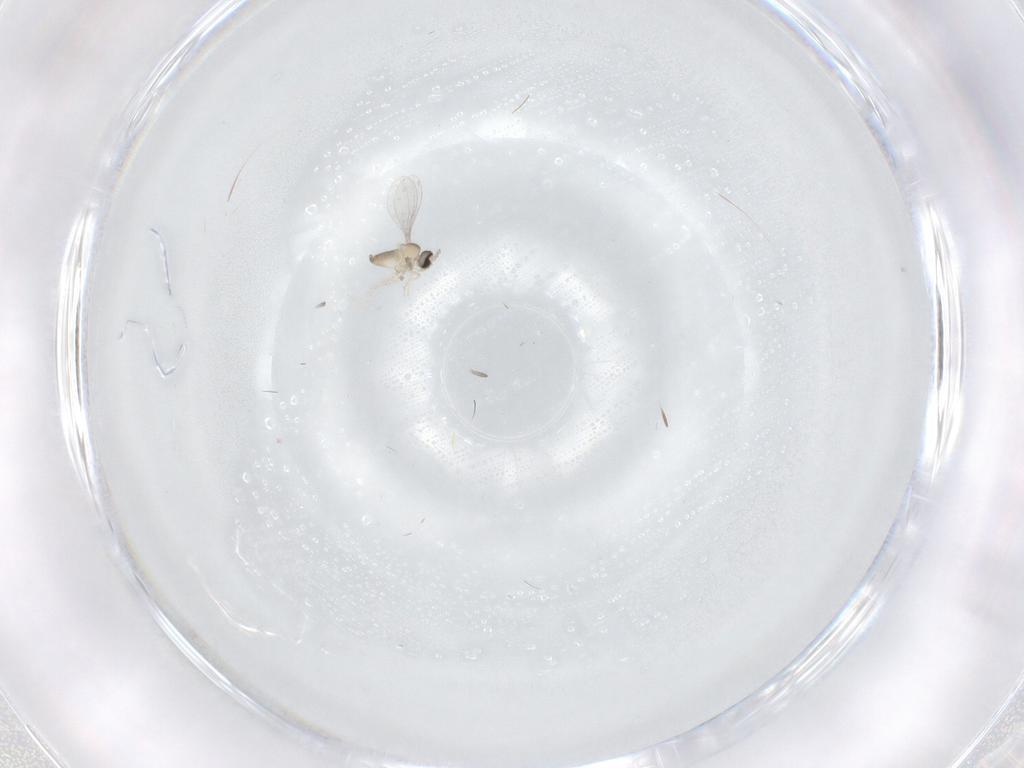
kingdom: Animalia
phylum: Arthropoda
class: Insecta
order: Diptera
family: Cecidomyiidae
